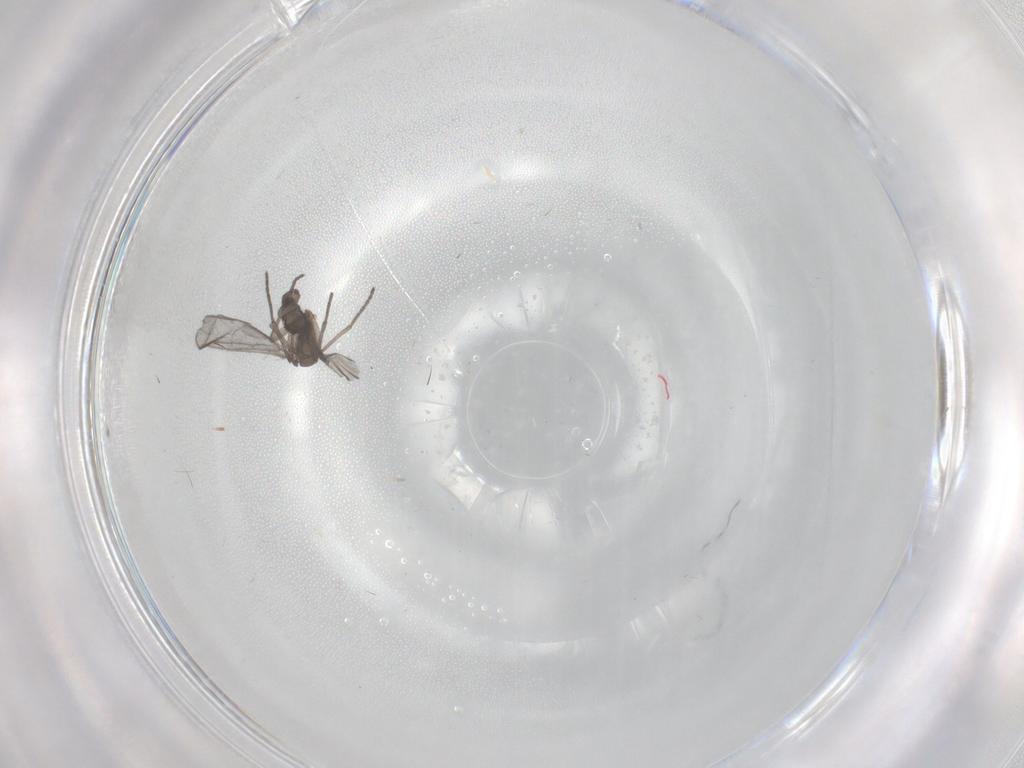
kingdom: Animalia
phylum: Arthropoda
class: Insecta
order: Diptera
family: Sciaridae
